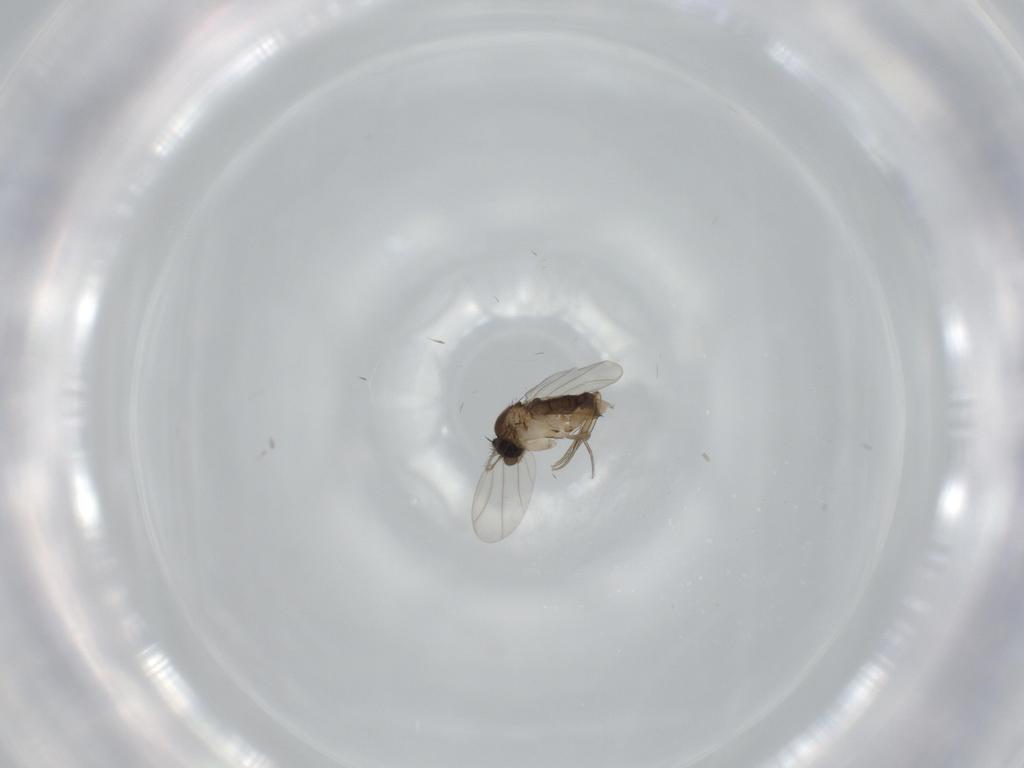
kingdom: Animalia
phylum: Arthropoda
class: Insecta
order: Diptera
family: Phoridae
